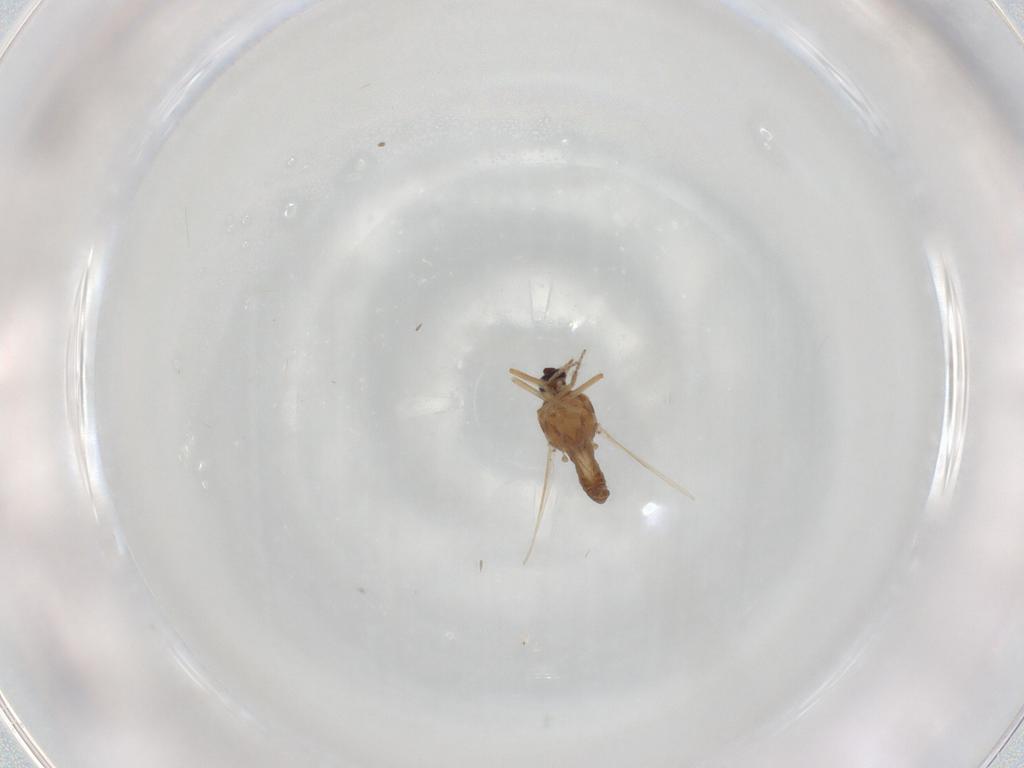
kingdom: Animalia
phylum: Arthropoda
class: Insecta
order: Diptera
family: Ceratopogonidae
